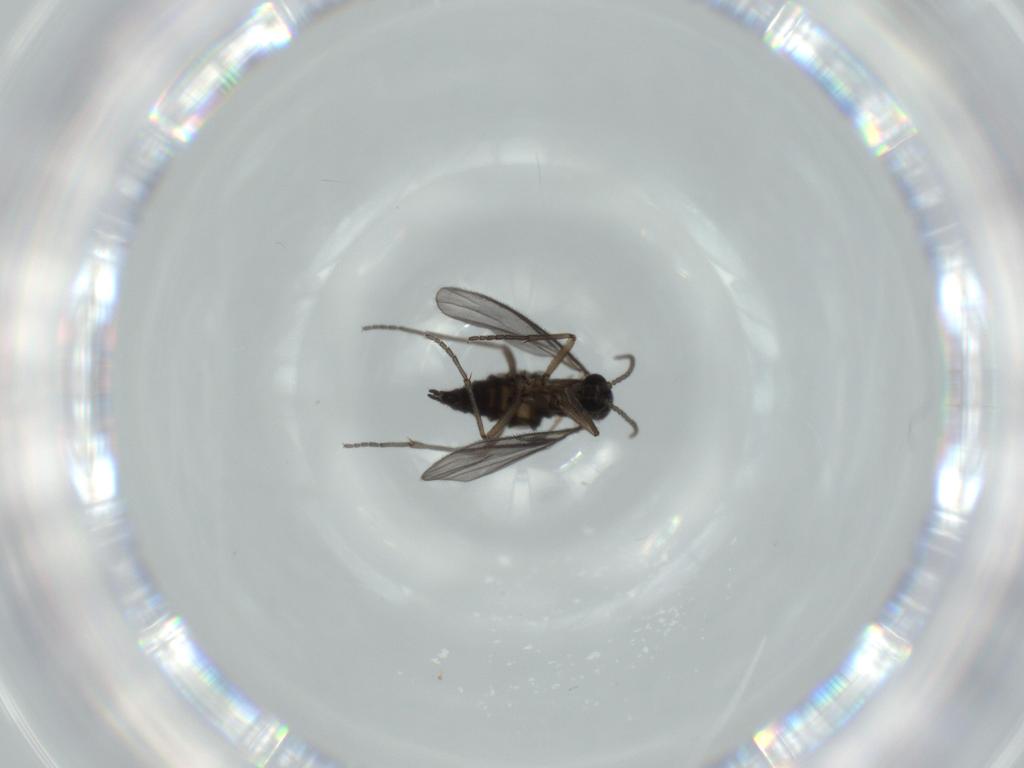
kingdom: Animalia
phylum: Arthropoda
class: Insecta
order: Diptera
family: Sciaridae
